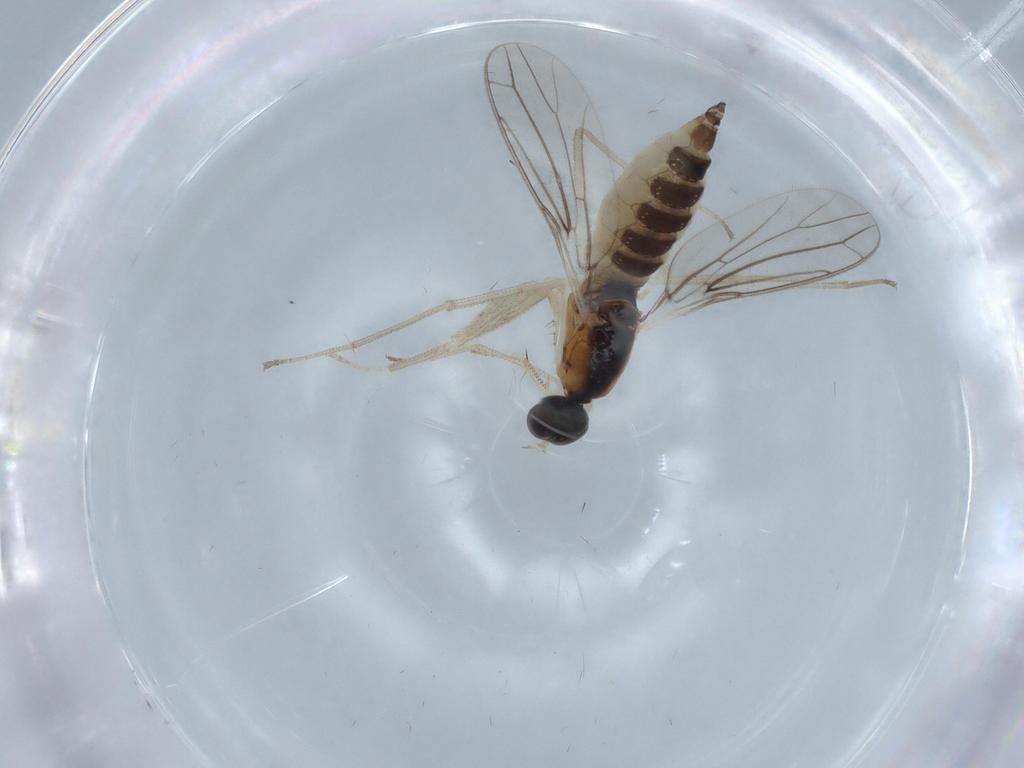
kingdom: Animalia
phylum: Arthropoda
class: Insecta
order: Diptera
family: Empididae
